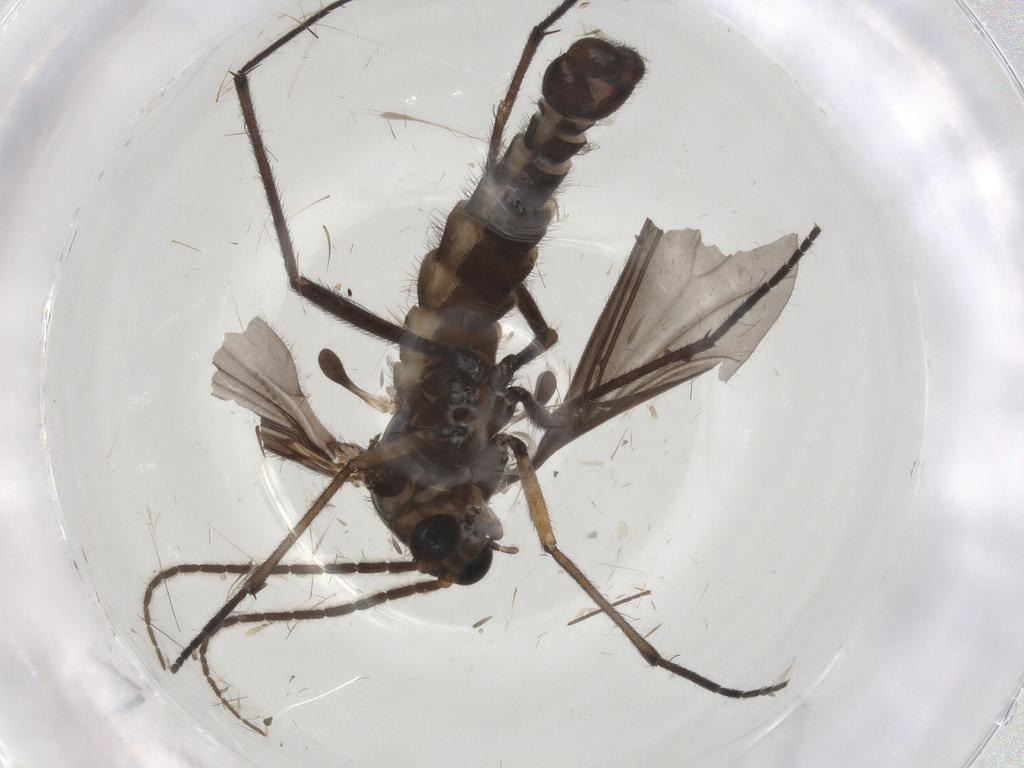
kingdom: Animalia
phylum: Arthropoda
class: Insecta
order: Diptera
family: Sciaridae
